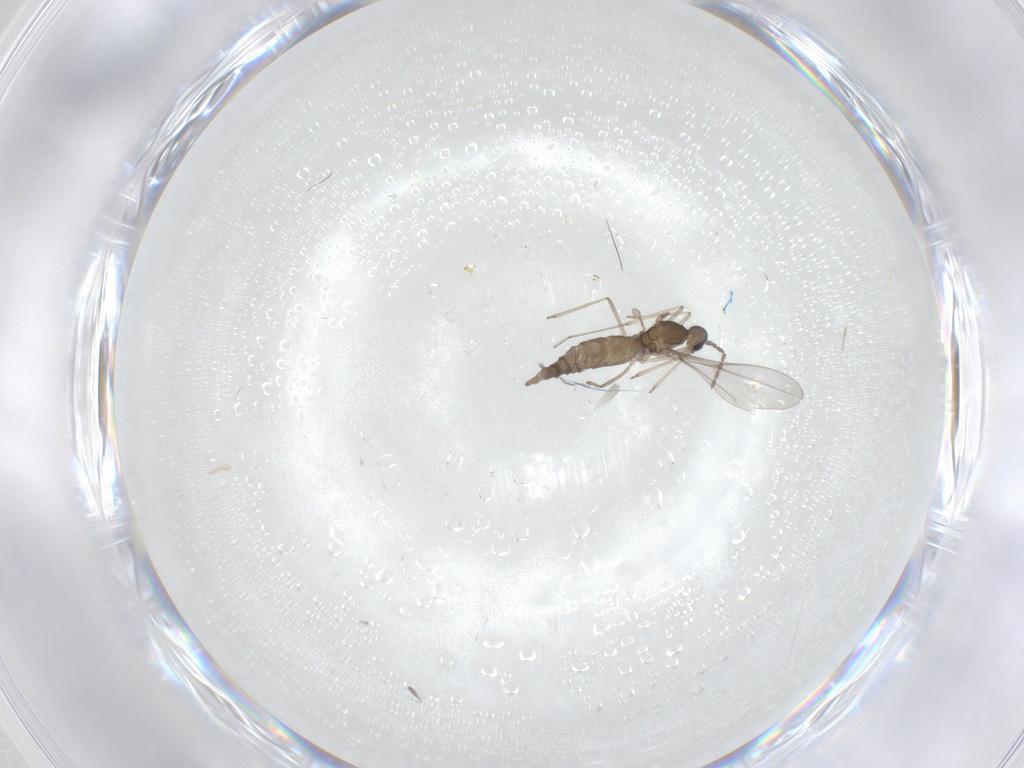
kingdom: Animalia
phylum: Arthropoda
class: Insecta
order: Diptera
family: Cecidomyiidae
